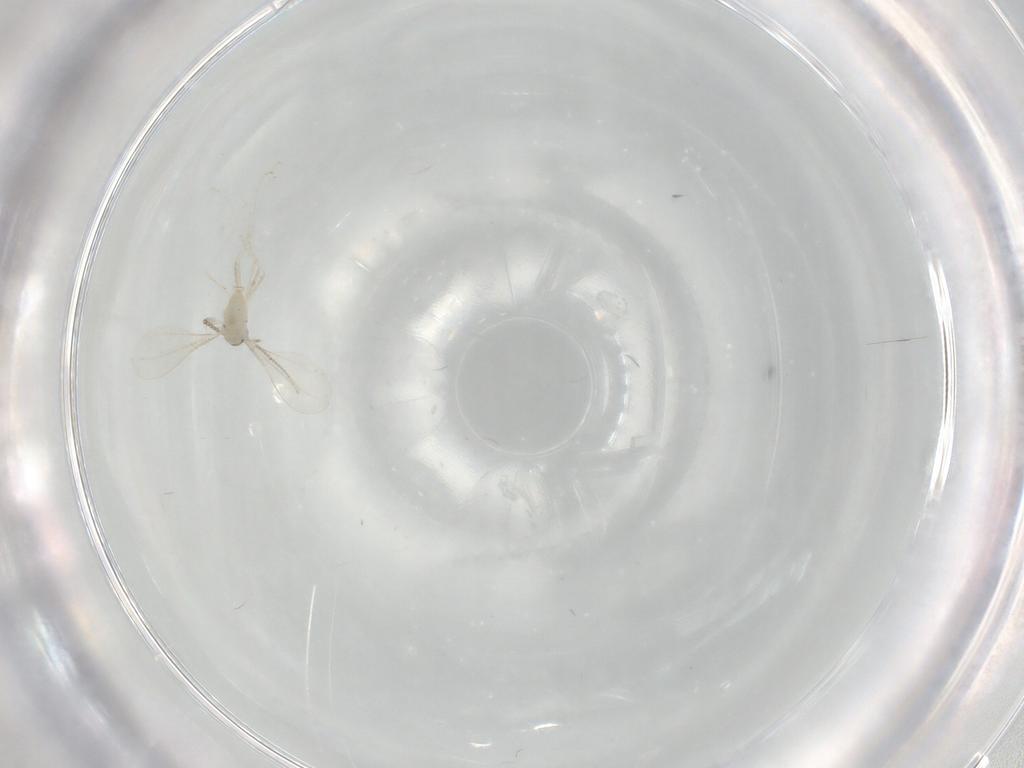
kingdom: Animalia
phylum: Arthropoda
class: Insecta
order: Diptera
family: Cecidomyiidae
